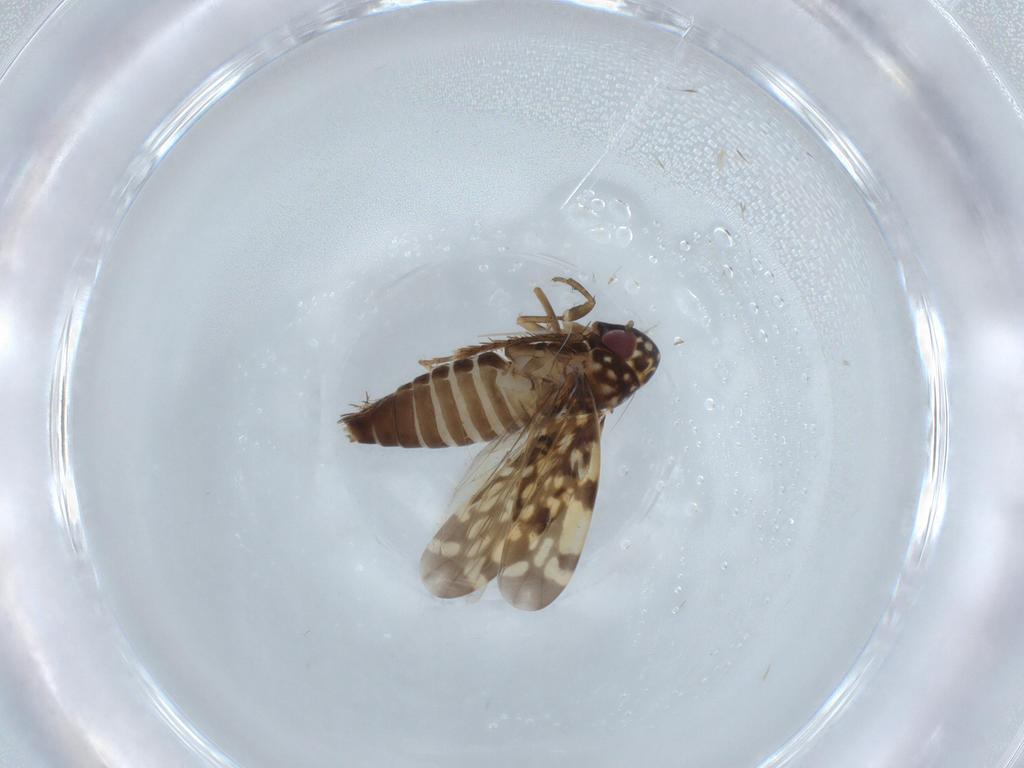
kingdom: Animalia
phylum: Arthropoda
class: Insecta
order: Hemiptera
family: Cicadellidae
